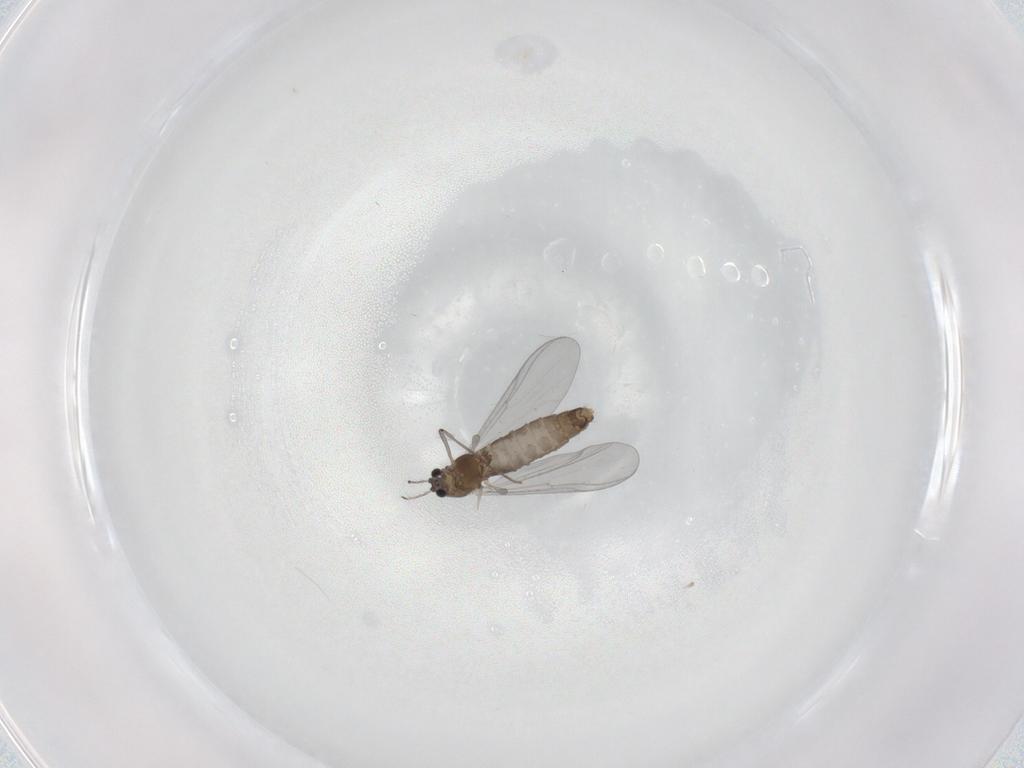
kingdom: Animalia
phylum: Arthropoda
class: Insecta
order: Diptera
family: Chironomidae
